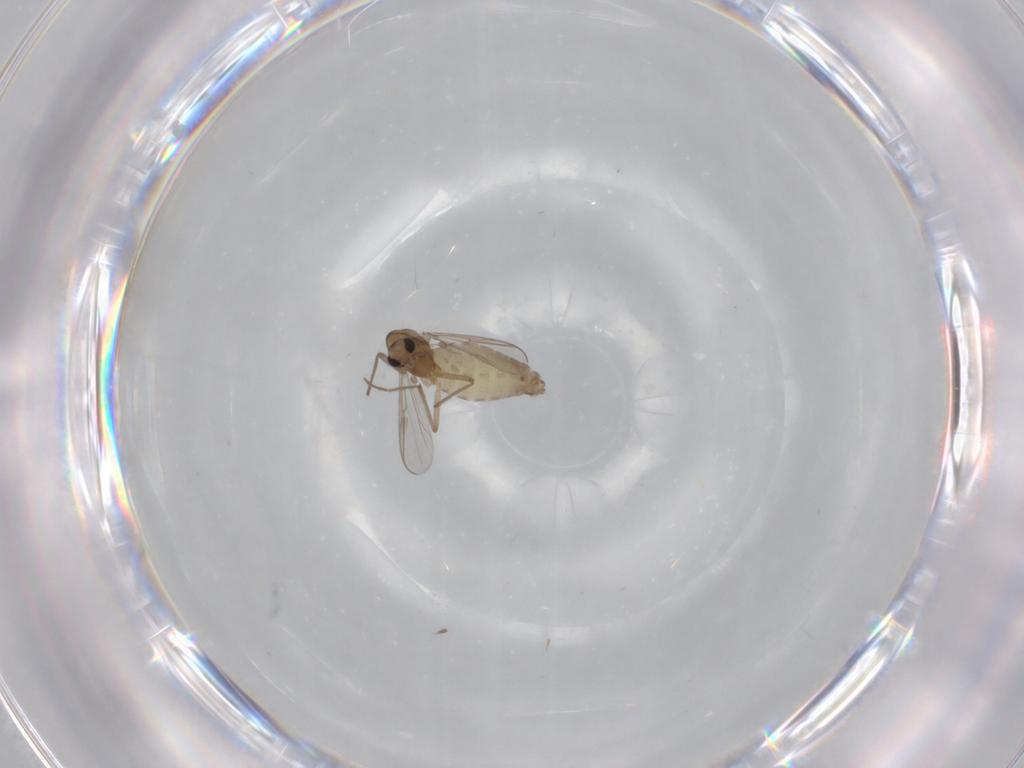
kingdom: Animalia
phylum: Arthropoda
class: Insecta
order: Diptera
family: Chironomidae
